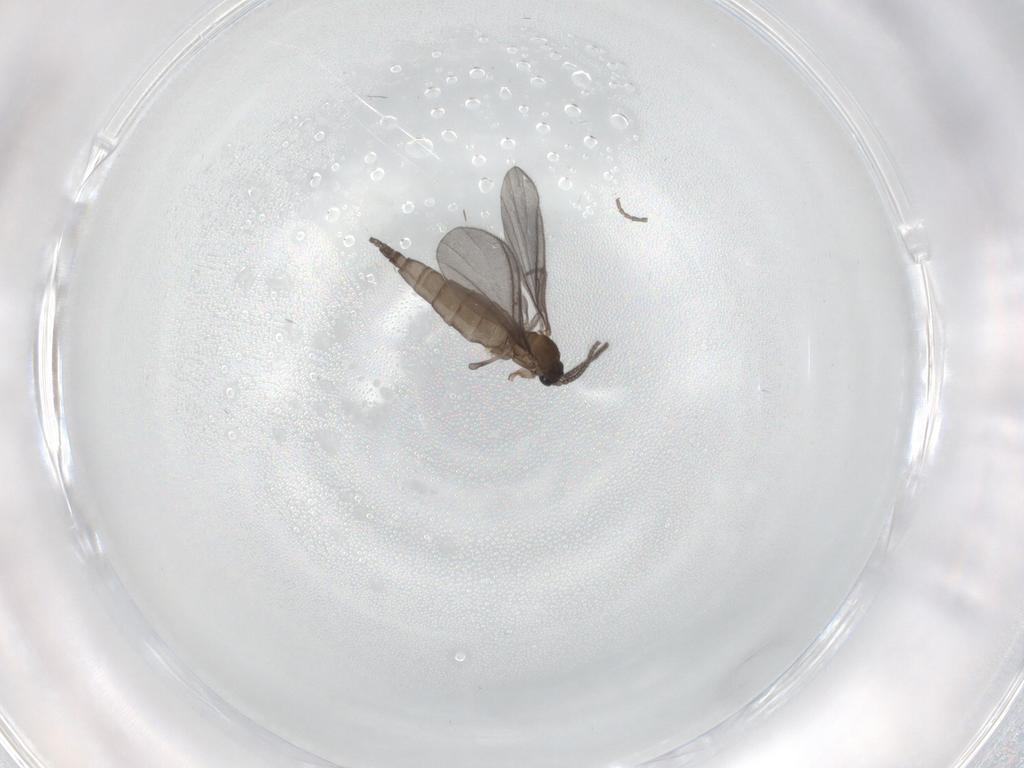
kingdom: Animalia
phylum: Arthropoda
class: Insecta
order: Diptera
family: Sciaridae
